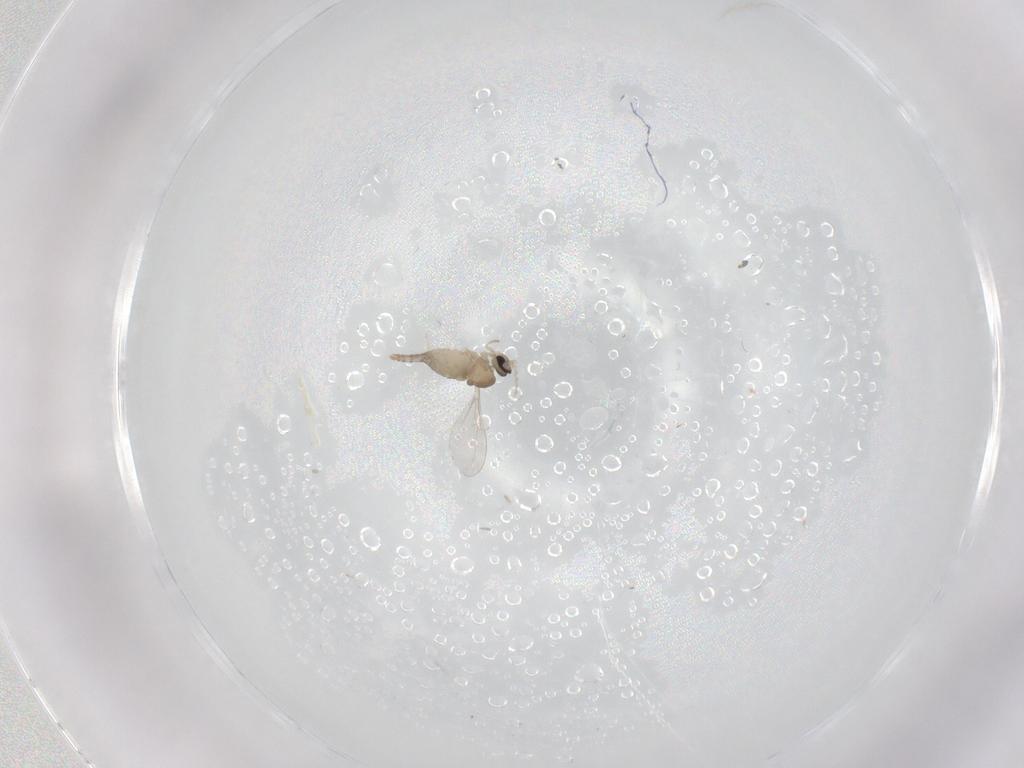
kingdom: Animalia
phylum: Arthropoda
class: Insecta
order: Diptera
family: Cecidomyiidae
